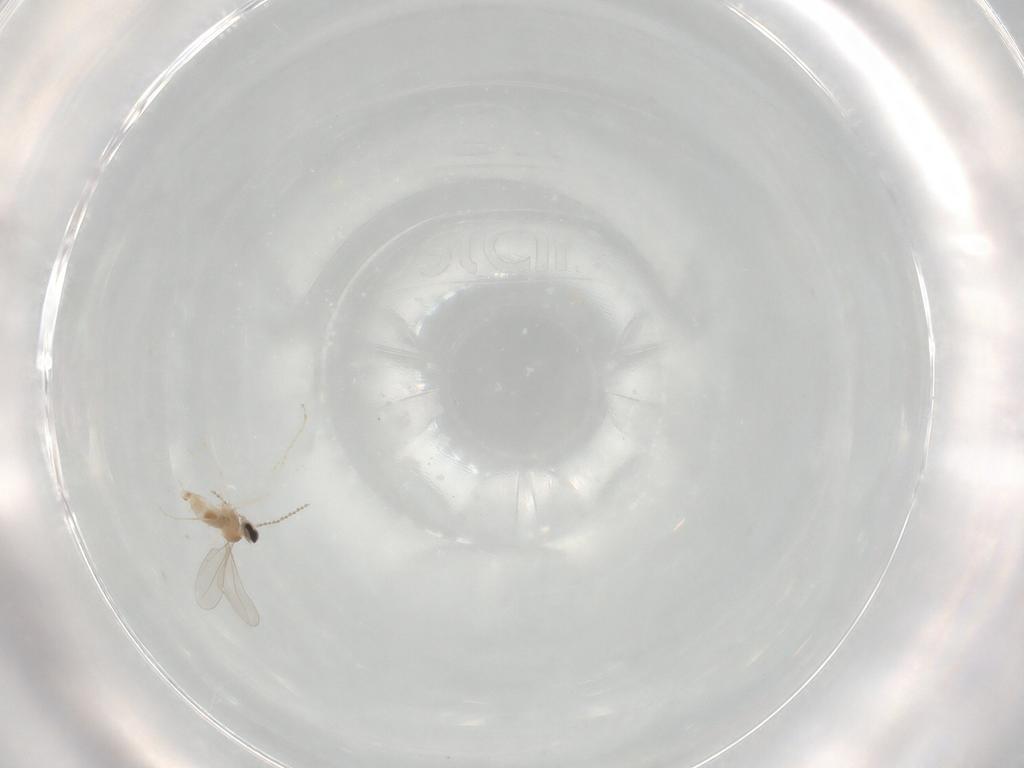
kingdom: Animalia
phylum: Arthropoda
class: Insecta
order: Diptera
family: Cecidomyiidae
